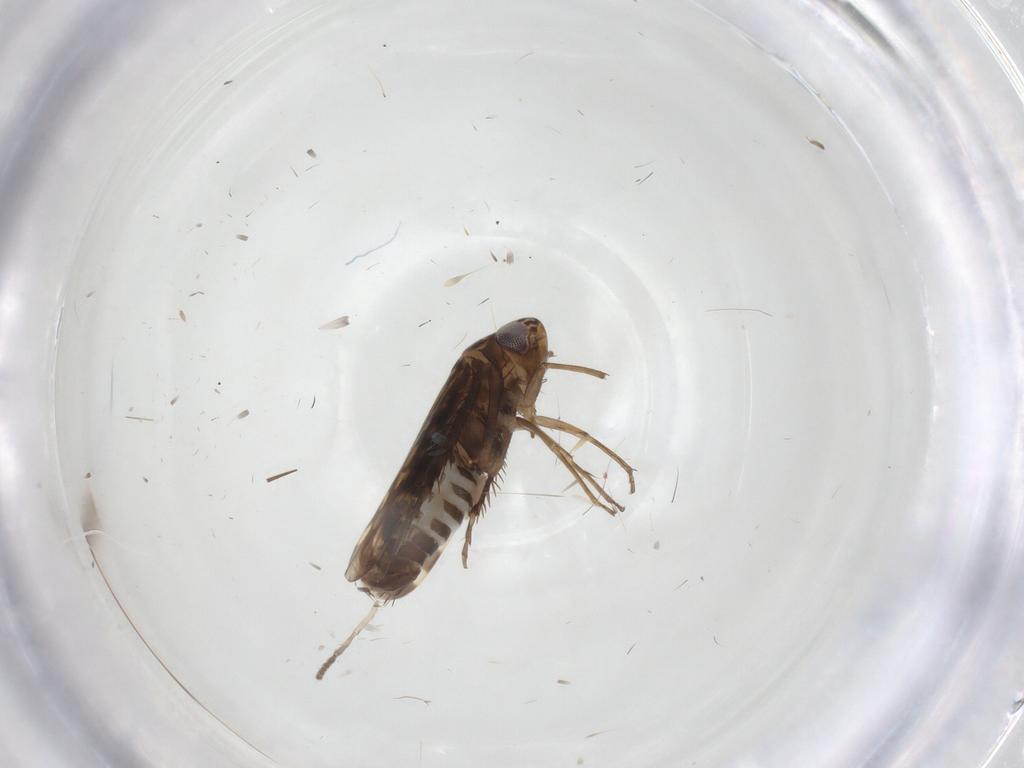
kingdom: Animalia
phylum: Arthropoda
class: Insecta
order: Hemiptera
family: Cicadellidae
